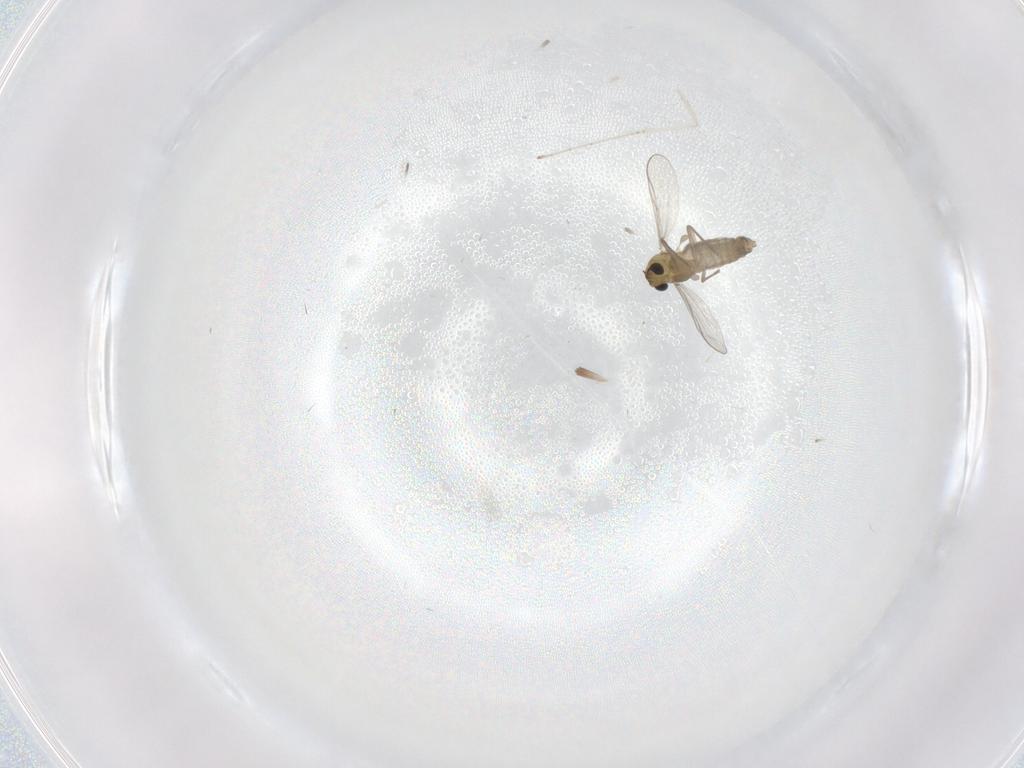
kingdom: Animalia
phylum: Arthropoda
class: Insecta
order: Diptera
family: Chironomidae
